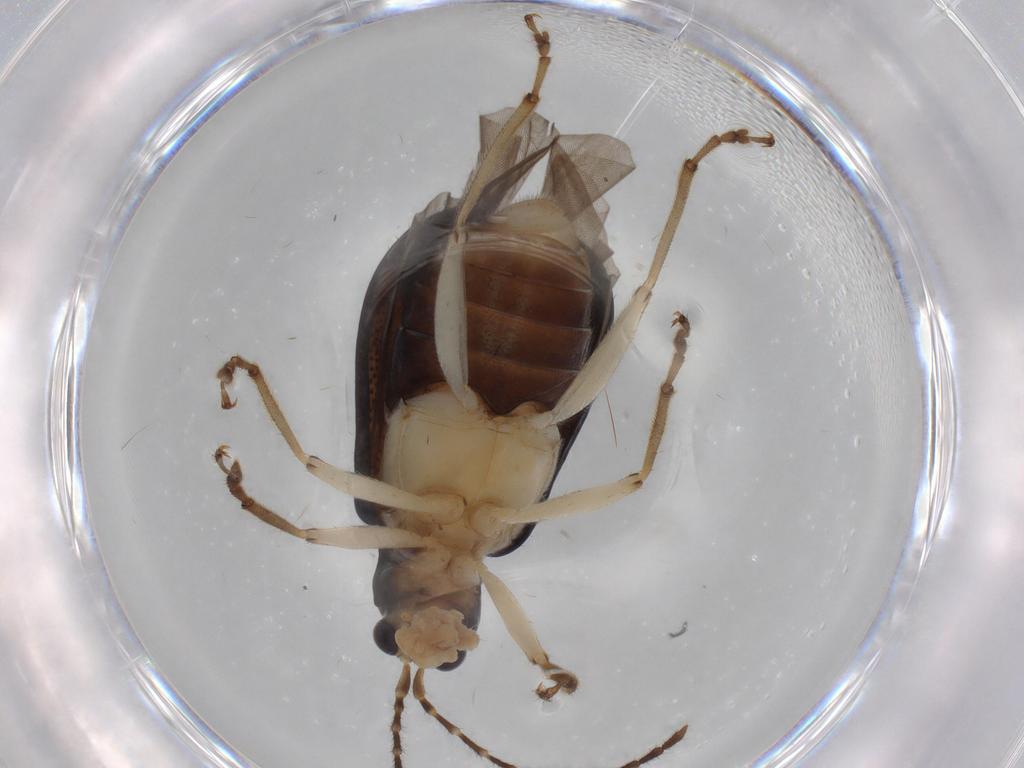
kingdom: Animalia
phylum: Arthropoda
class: Insecta
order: Coleoptera
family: Chrysomelidae
